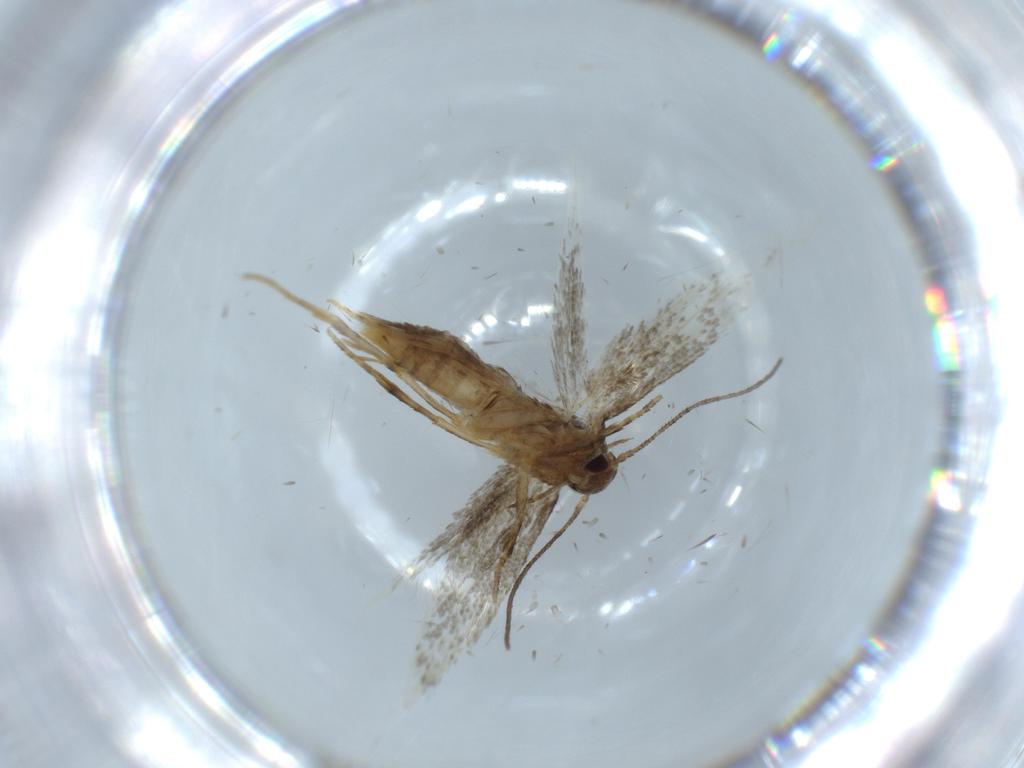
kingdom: Animalia
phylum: Arthropoda
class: Insecta
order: Lepidoptera
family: Elachistidae
